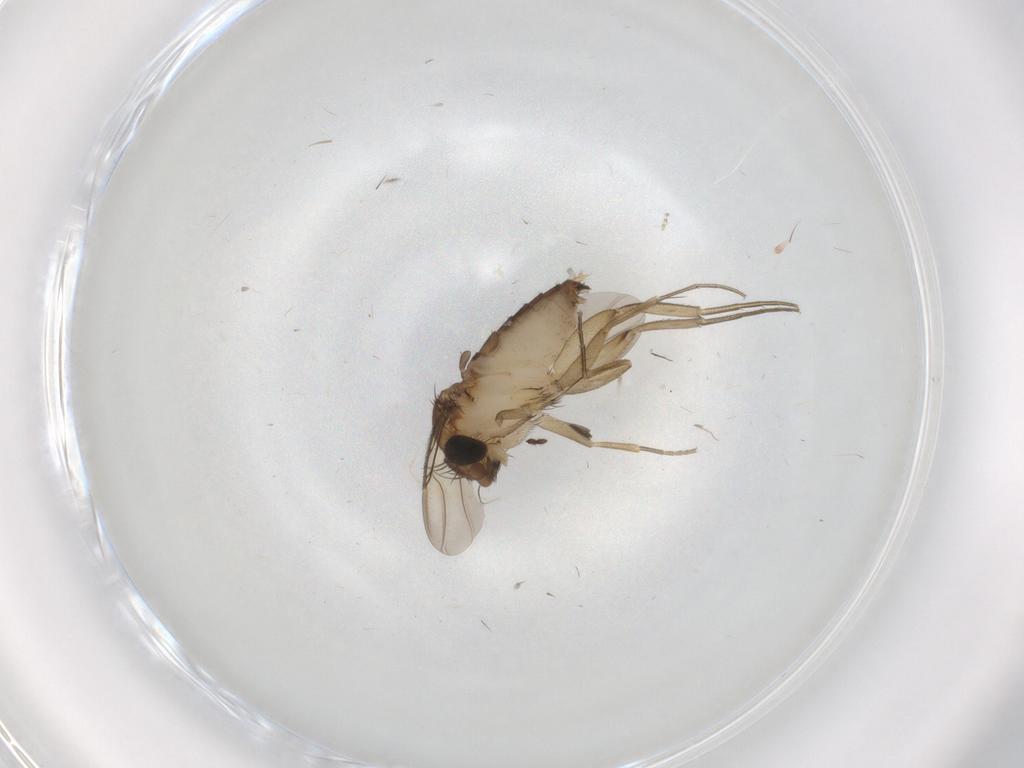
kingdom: Animalia
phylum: Arthropoda
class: Insecta
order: Diptera
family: Phoridae
